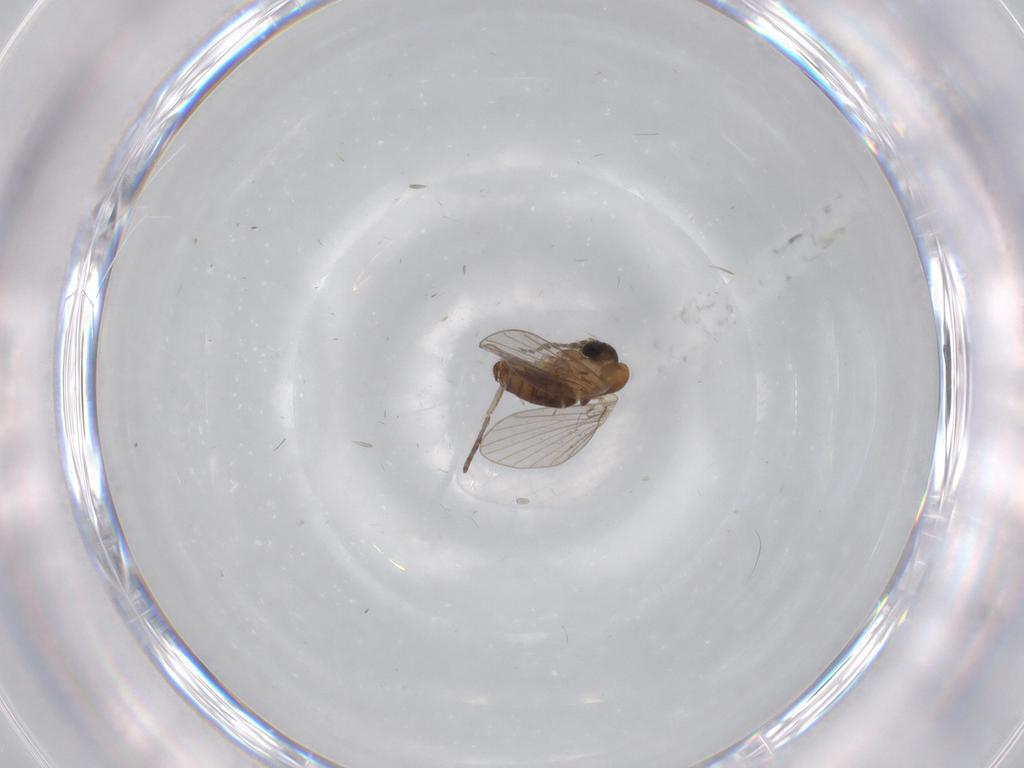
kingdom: Animalia
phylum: Arthropoda
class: Insecta
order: Diptera
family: Psychodidae
